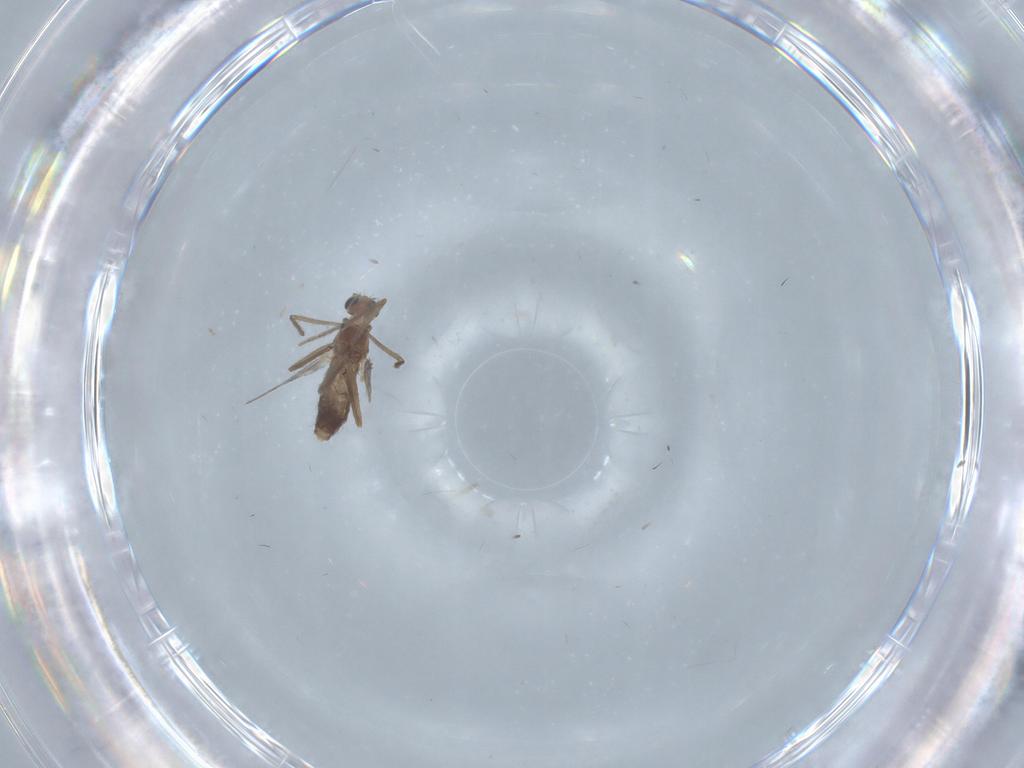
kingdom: Animalia
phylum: Arthropoda
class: Insecta
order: Diptera
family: Chironomidae
